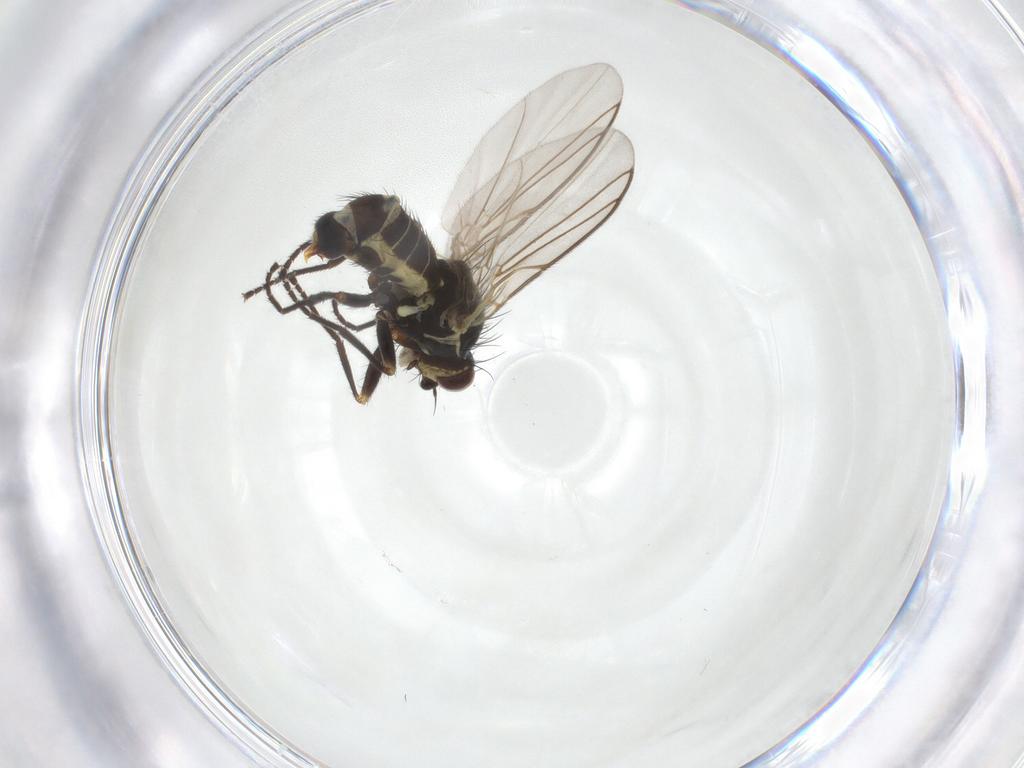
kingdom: Animalia
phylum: Arthropoda
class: Insecta
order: Diptera
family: Agromyzidae
